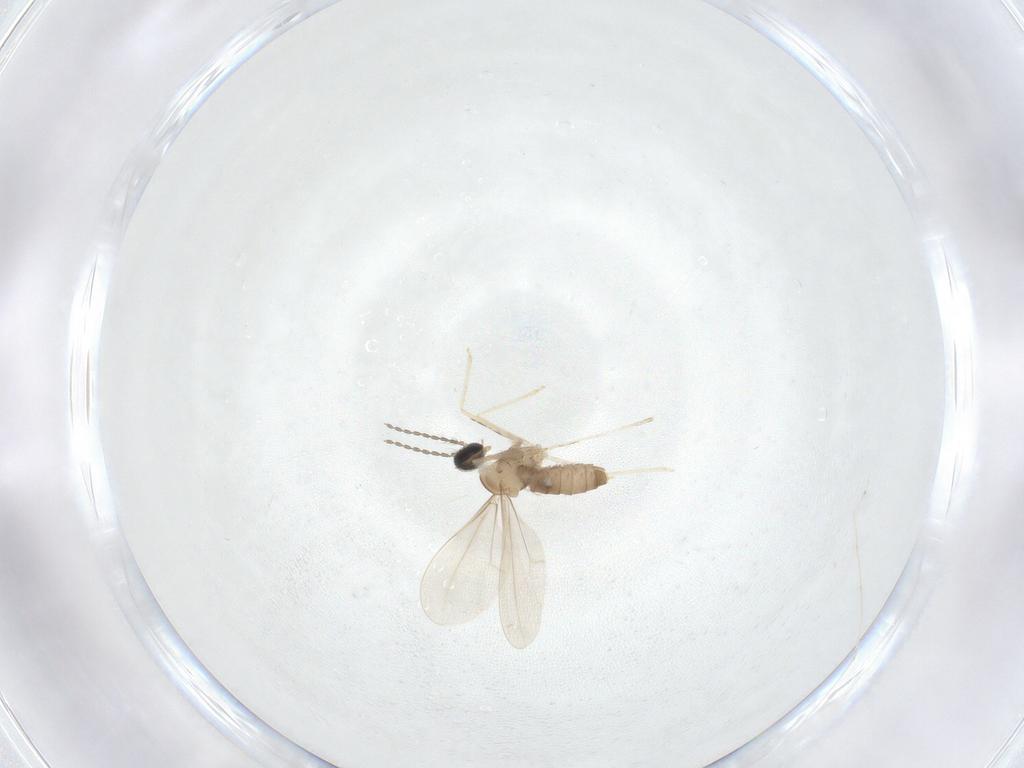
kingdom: Animalia
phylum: Arthropoda
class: Insecta
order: Diptera
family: Cecidomyiidae
